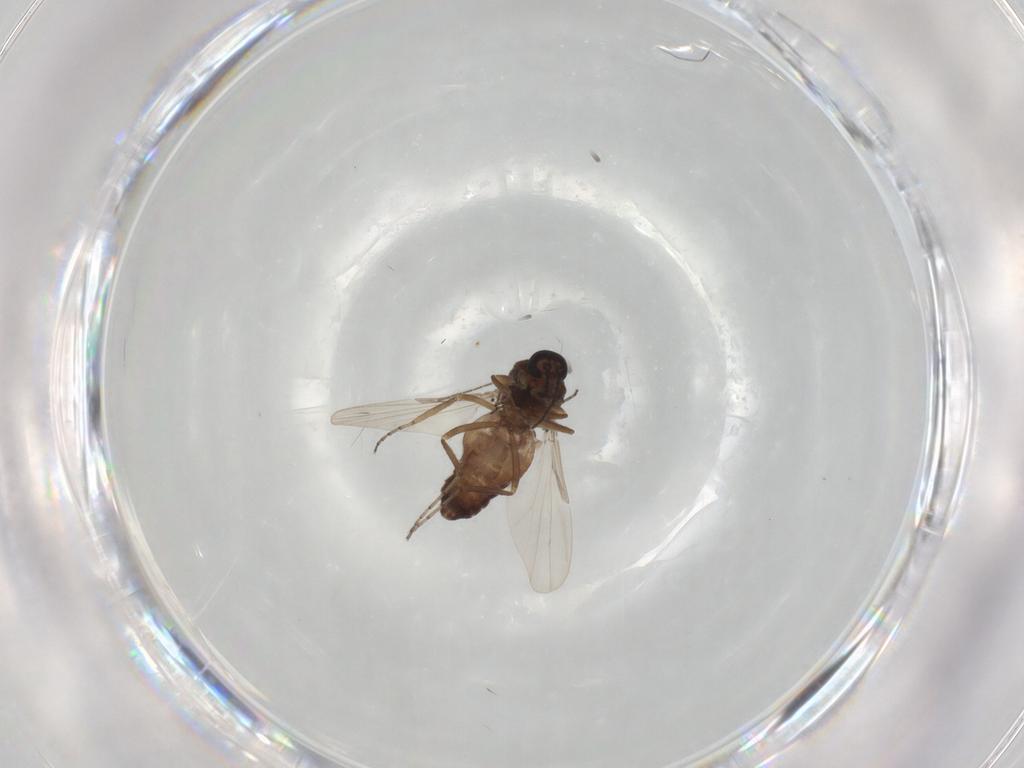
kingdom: Animalia
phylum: Arthropoda
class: Insecta
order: Diptera
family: Ceratopogonidae
